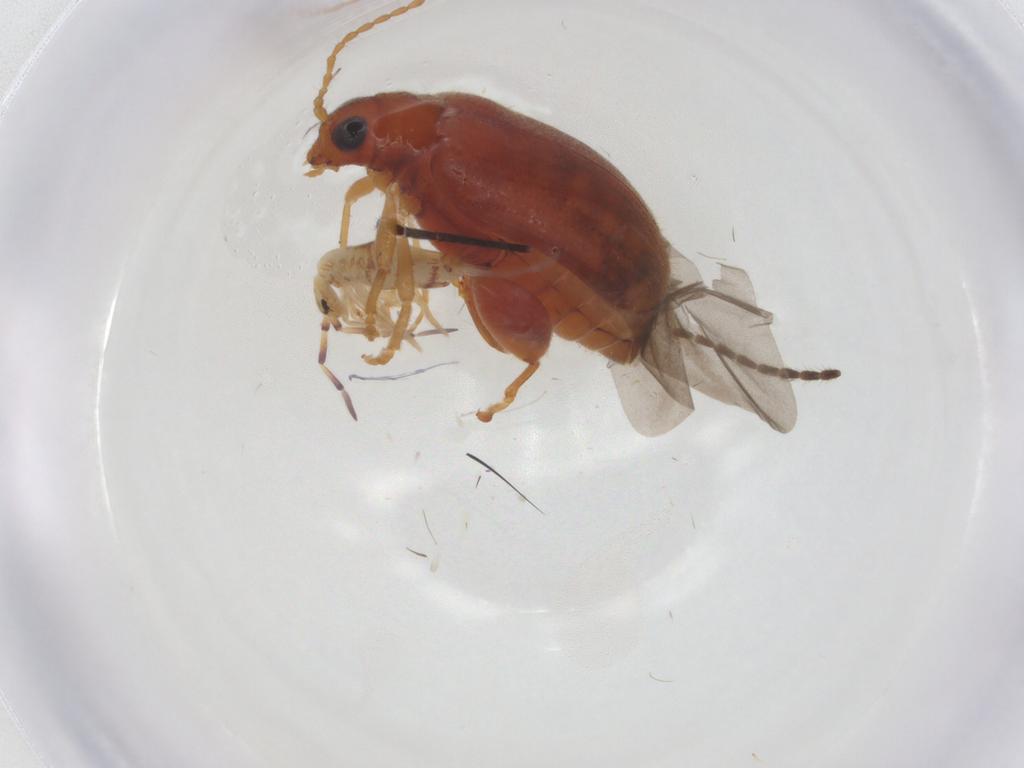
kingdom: Animalia
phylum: Arthropoda
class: Insecta
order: Coleoptera
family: Chrysomelidae
